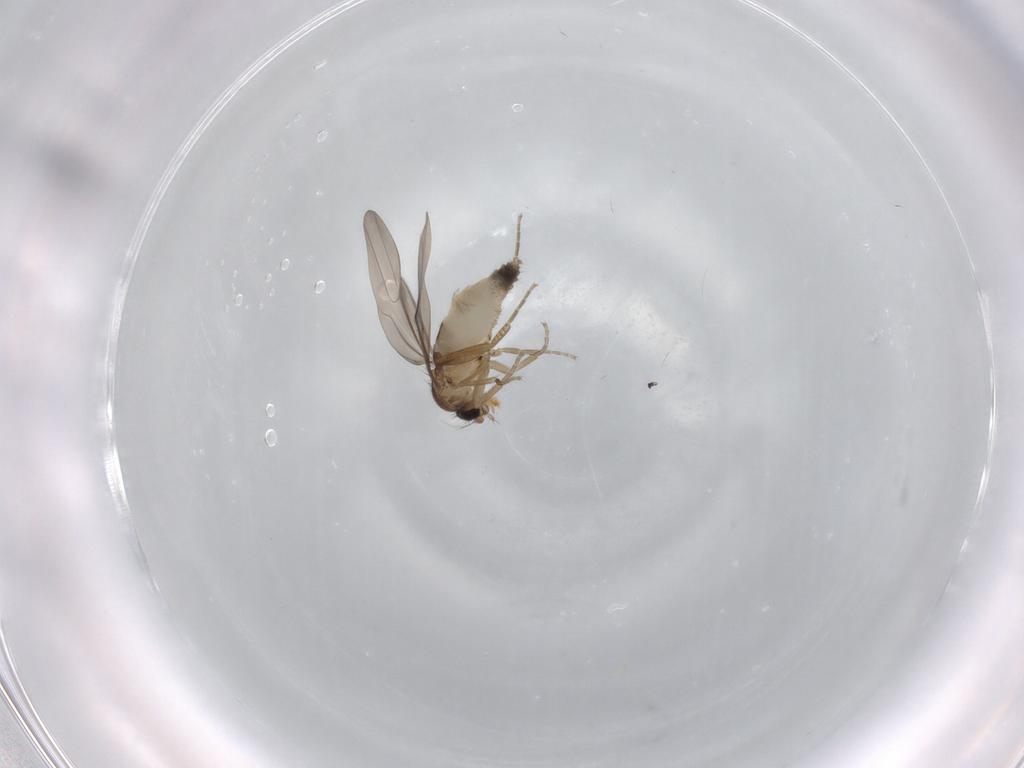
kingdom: Animalia
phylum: Arthropoda
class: Insecta
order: Diptera
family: Phoridae
